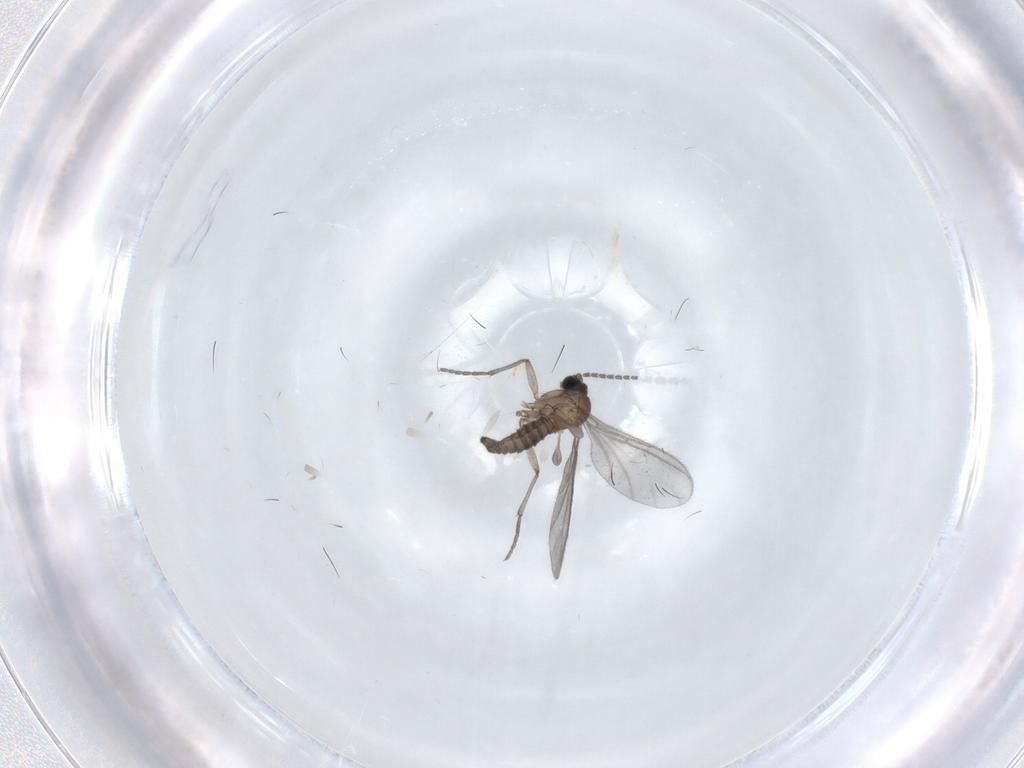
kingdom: Animalia
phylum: Arthropoda
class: Insecta
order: Diptera
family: Sciaridae
